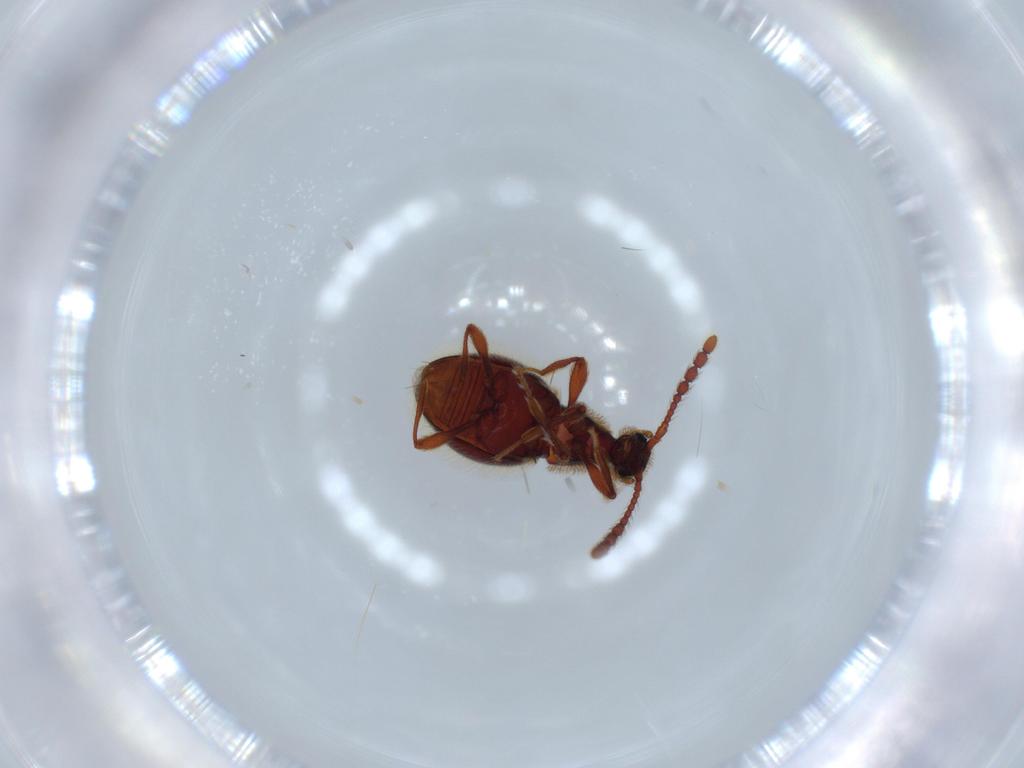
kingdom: Animalia
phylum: Arthropoda
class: Insecta
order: Coleoptera
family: Staphylinidae
